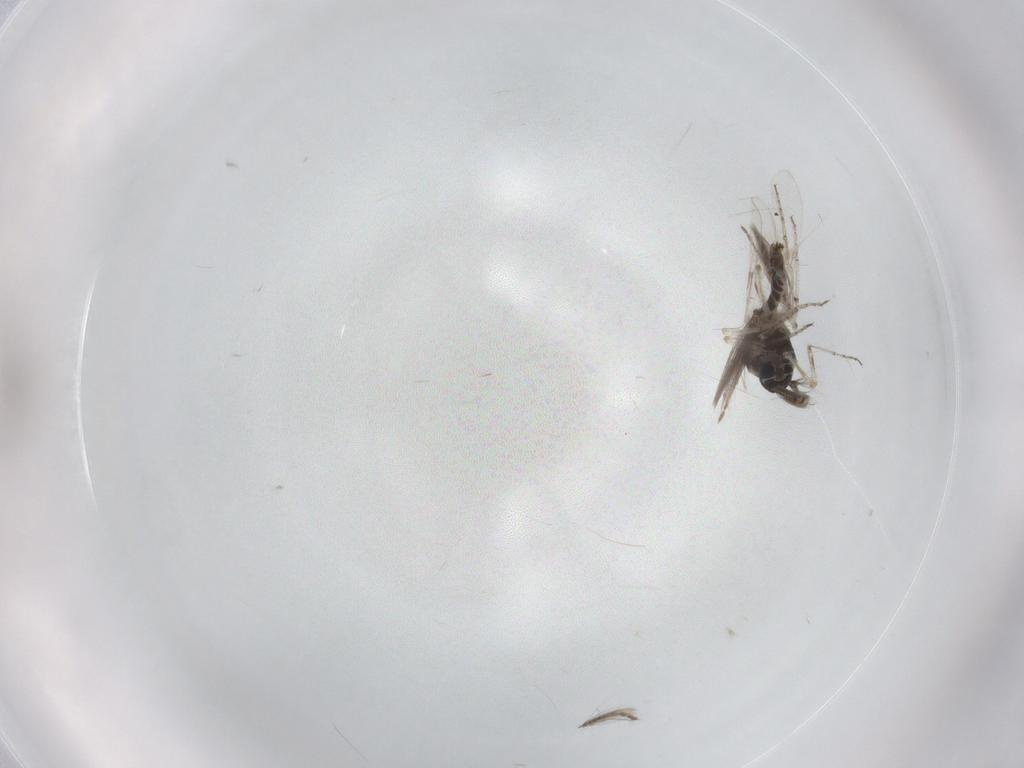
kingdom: Animalia
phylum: Arthropoda
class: Insecta
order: Diptera
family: Ceratopogonidae
